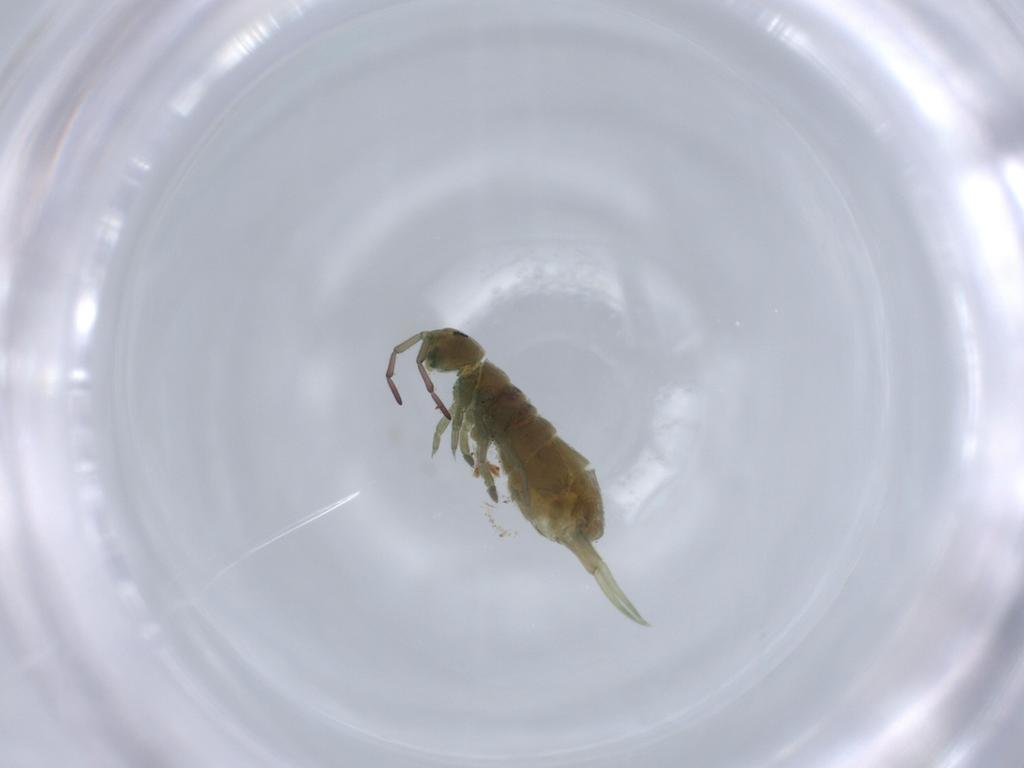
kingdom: Animalia
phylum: Arthropoda
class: Collembola
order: Entomobryomorpha
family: Isotomidae
